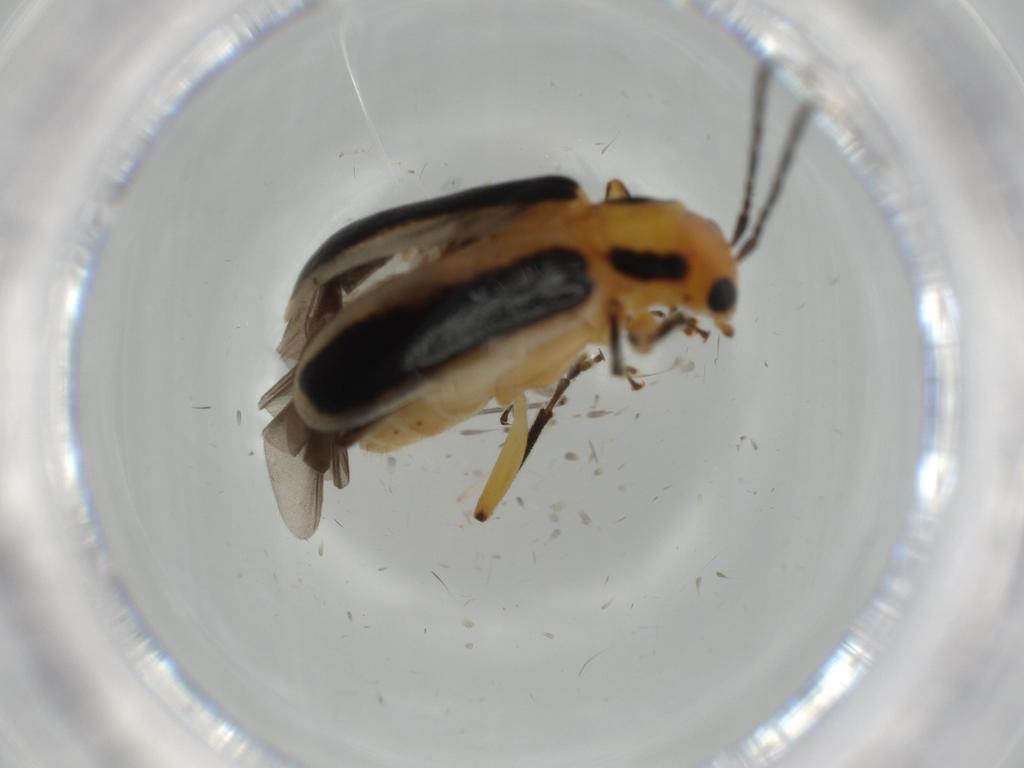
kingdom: Animalia
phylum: Arthropoda
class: Insecta
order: Coleoptera
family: Chrysomelidae
